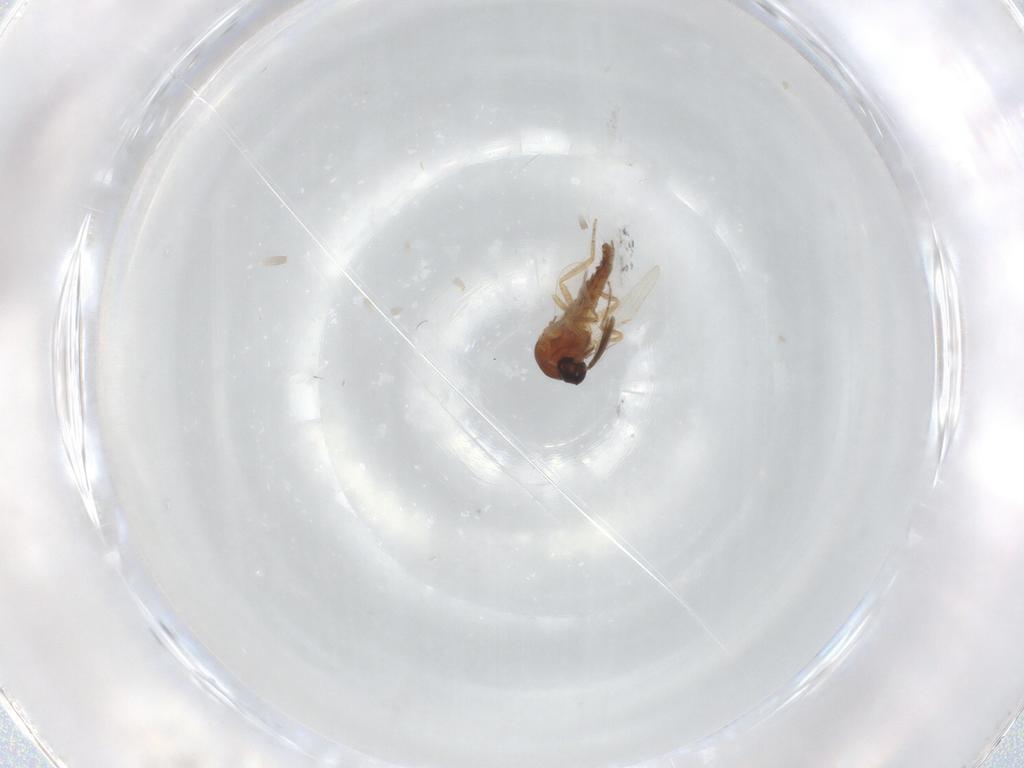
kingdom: Animalia
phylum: Arthropoda
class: Insecta
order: Diptera
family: Ceratopogonidae
